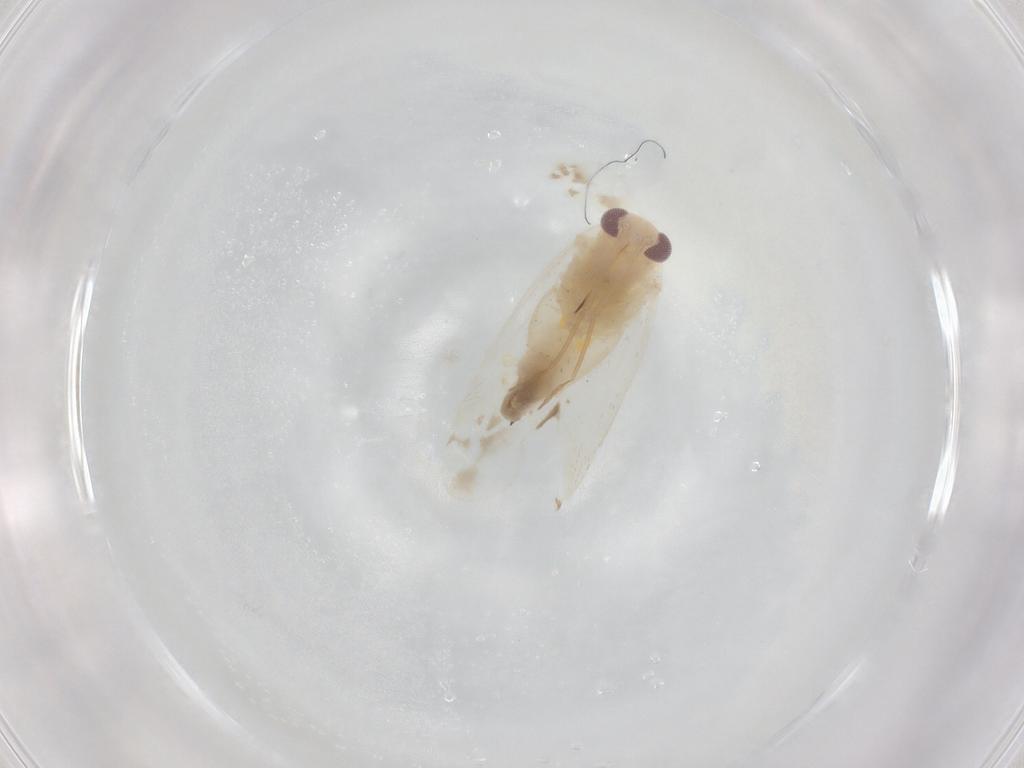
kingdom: Animalia
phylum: Arthropoda
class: Insecta
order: Hemiptera
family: Miridae
